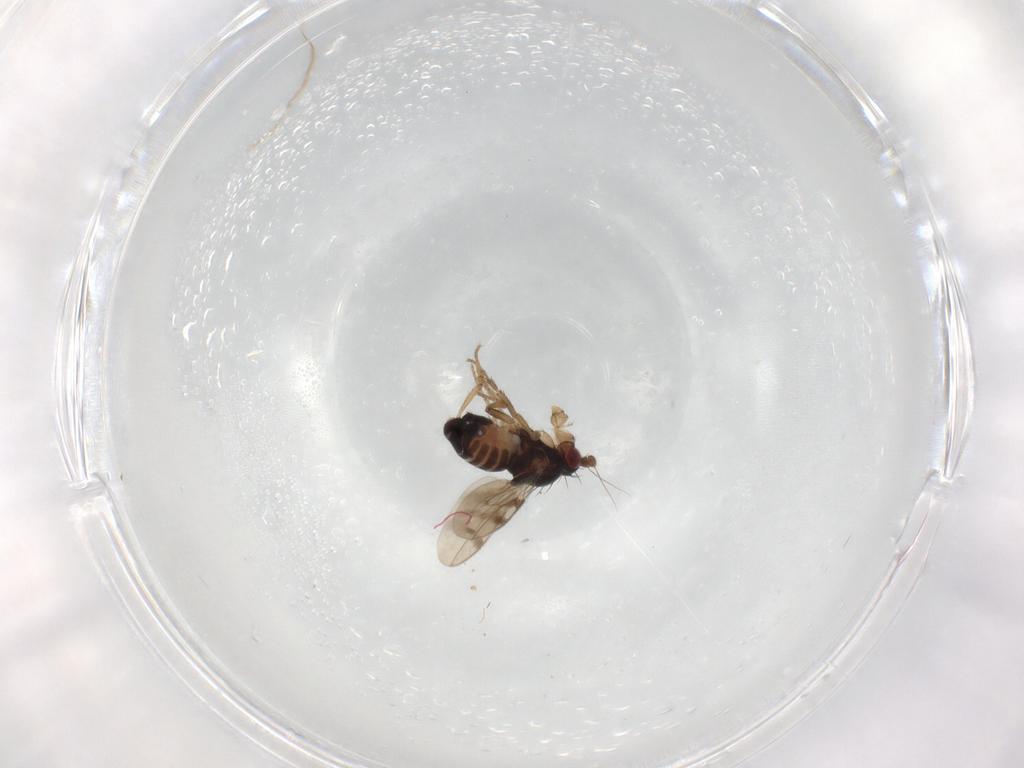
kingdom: Animalia
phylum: Arthropoda
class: Insecta
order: Diptera
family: Sphaeroceridae
